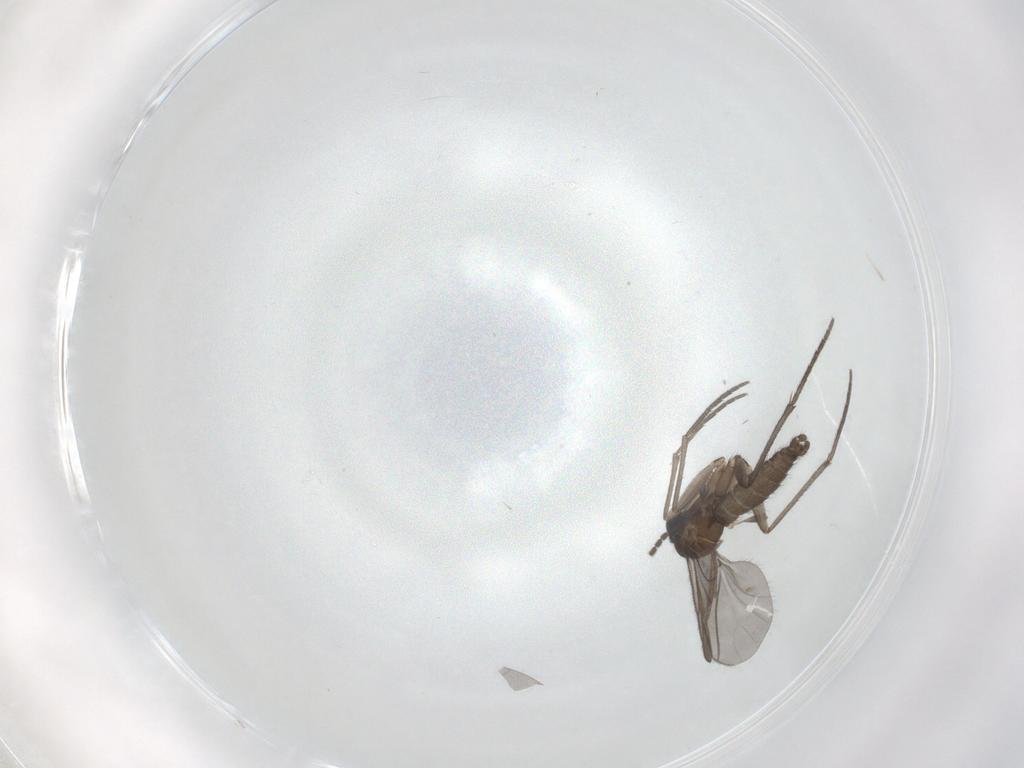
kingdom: Animalia
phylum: Arthropoda
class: Insecta
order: Diptera
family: Sciaridae
